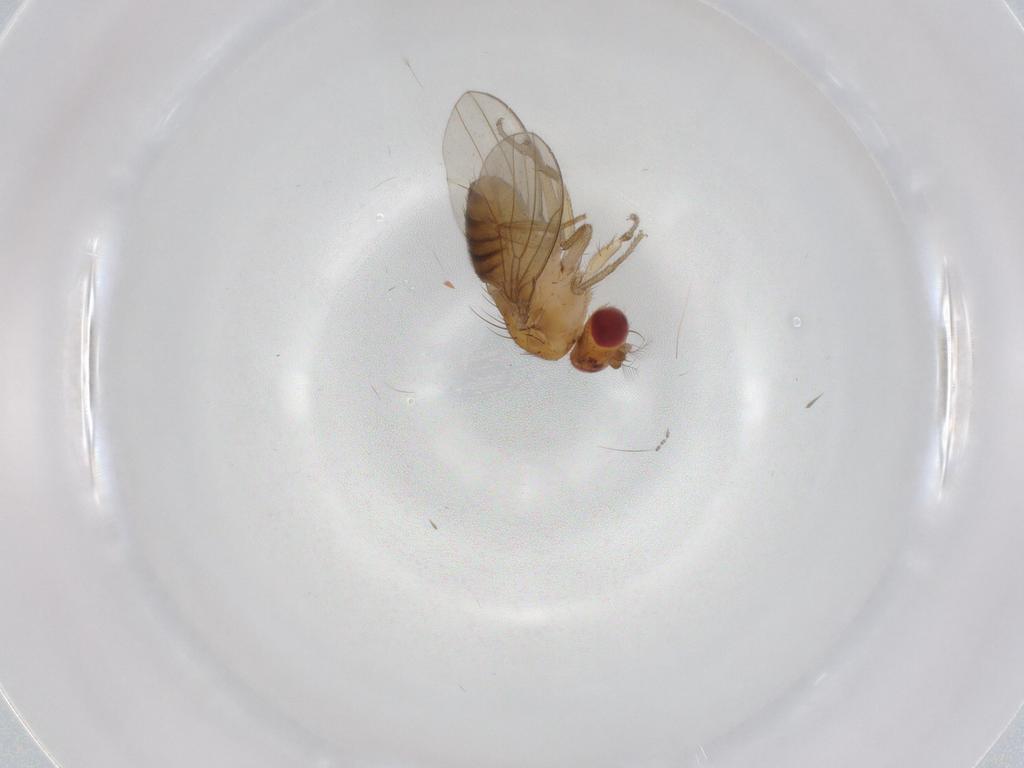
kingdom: Animalia
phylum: Arthropoda
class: Insecta
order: Diptera
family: Drosophilidae
